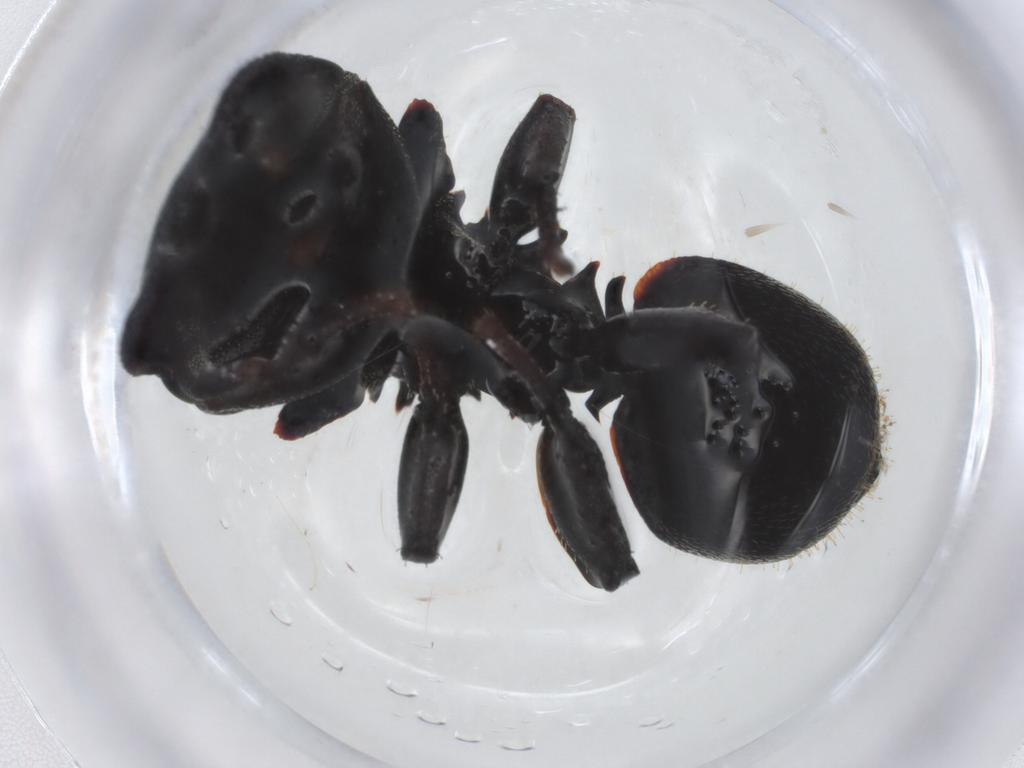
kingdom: Animalia
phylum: Arthropoda
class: Insecta
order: Hymenoptera
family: Formicidae
